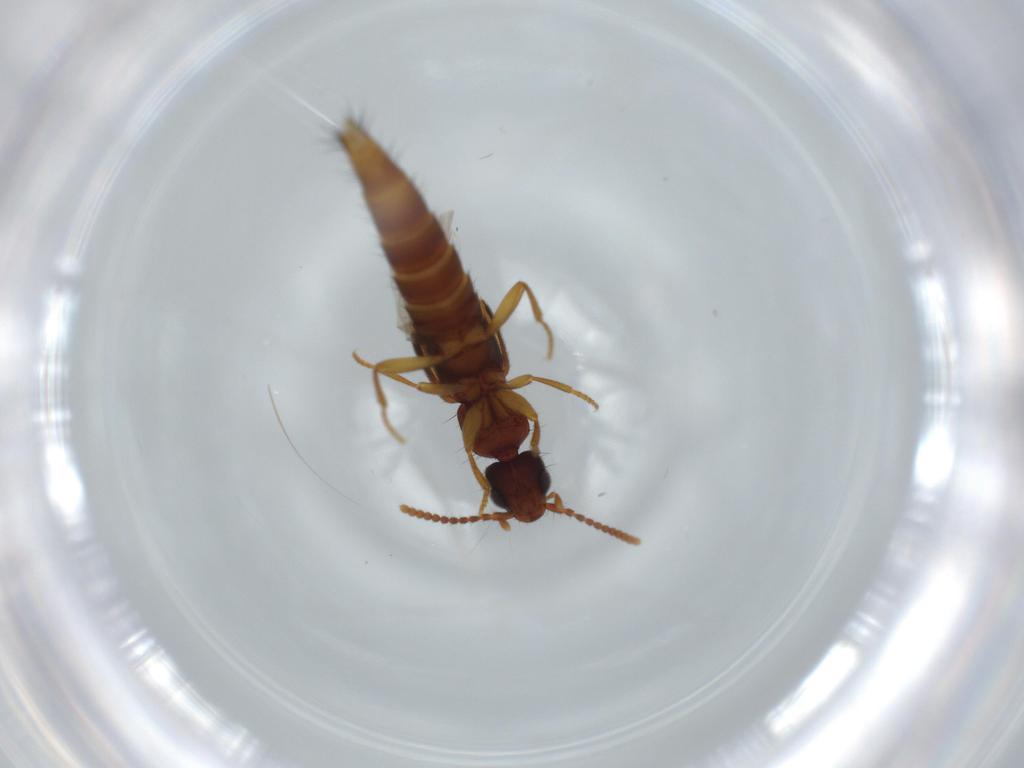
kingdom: Animalia
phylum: Arthropoda
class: Insecta
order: Coleoptera
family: Staphylinidae
